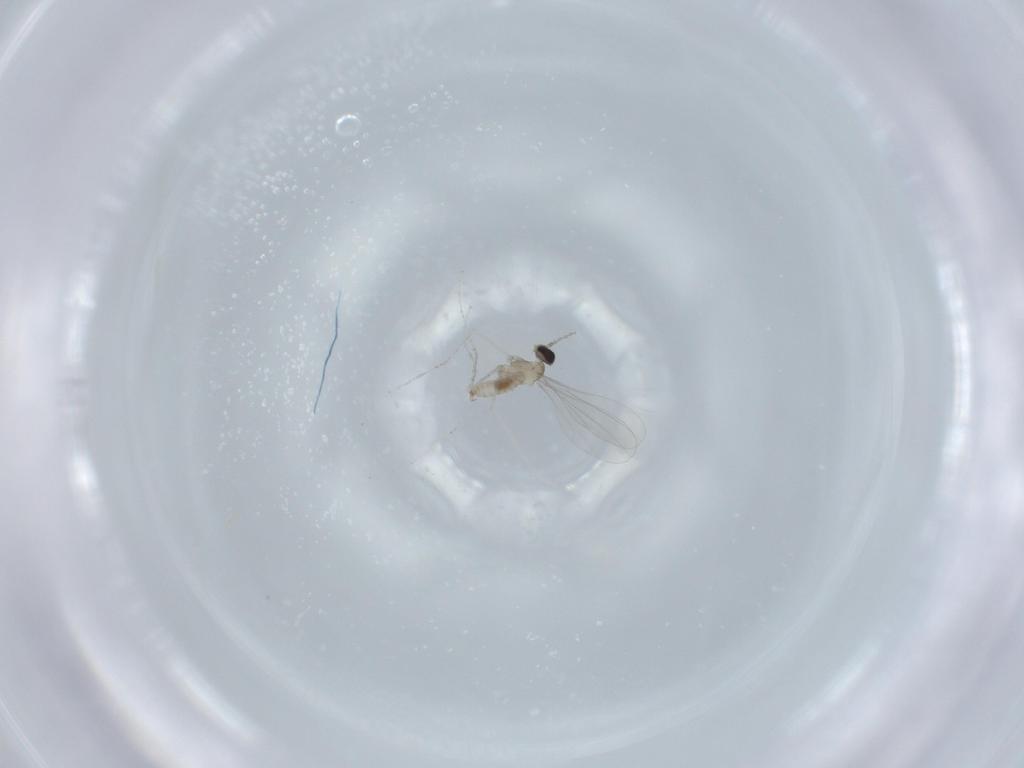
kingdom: Animalia
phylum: Arthropoda
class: Insecta
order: Diptera
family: Cecidomyiidae
